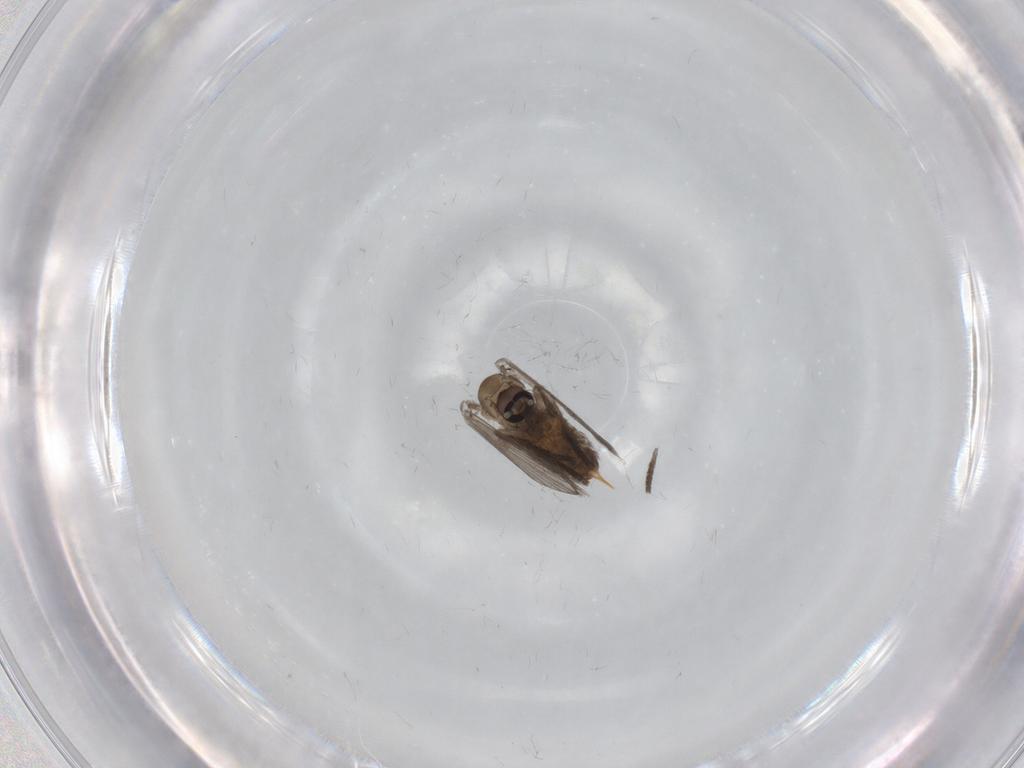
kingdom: Animalia
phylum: Arthropoda
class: Insecta
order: Diptera
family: Psychodidae
